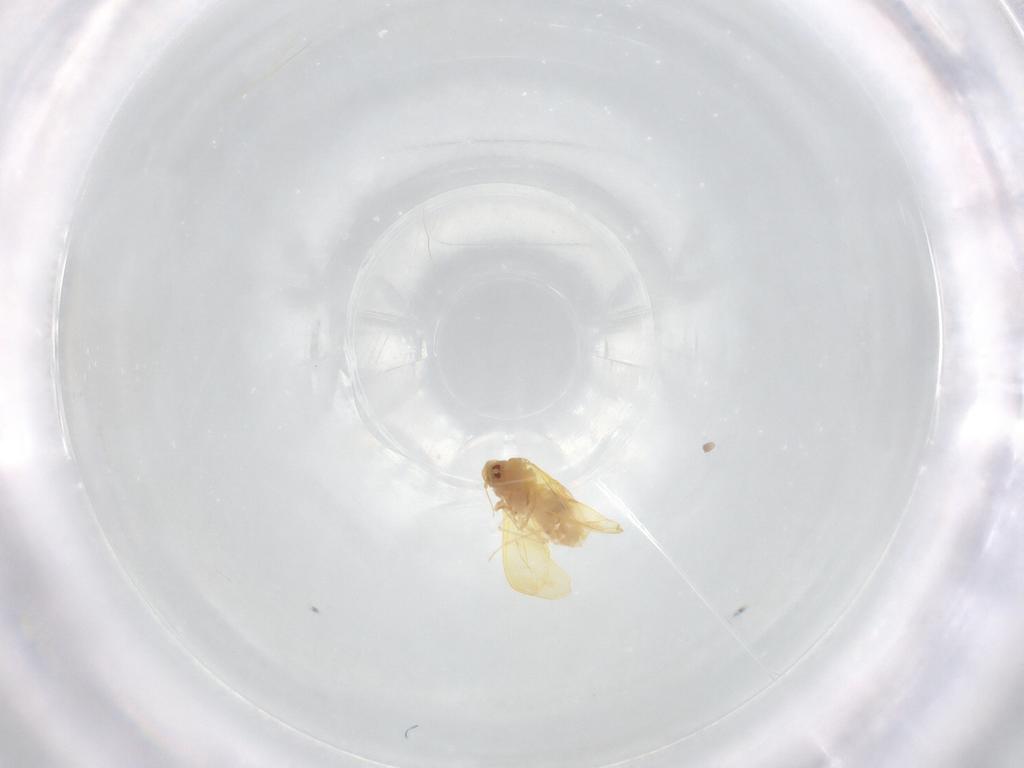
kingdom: Animalia
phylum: Arthropoda
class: Insecta
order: Hemiptera
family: Aleyrodidae
